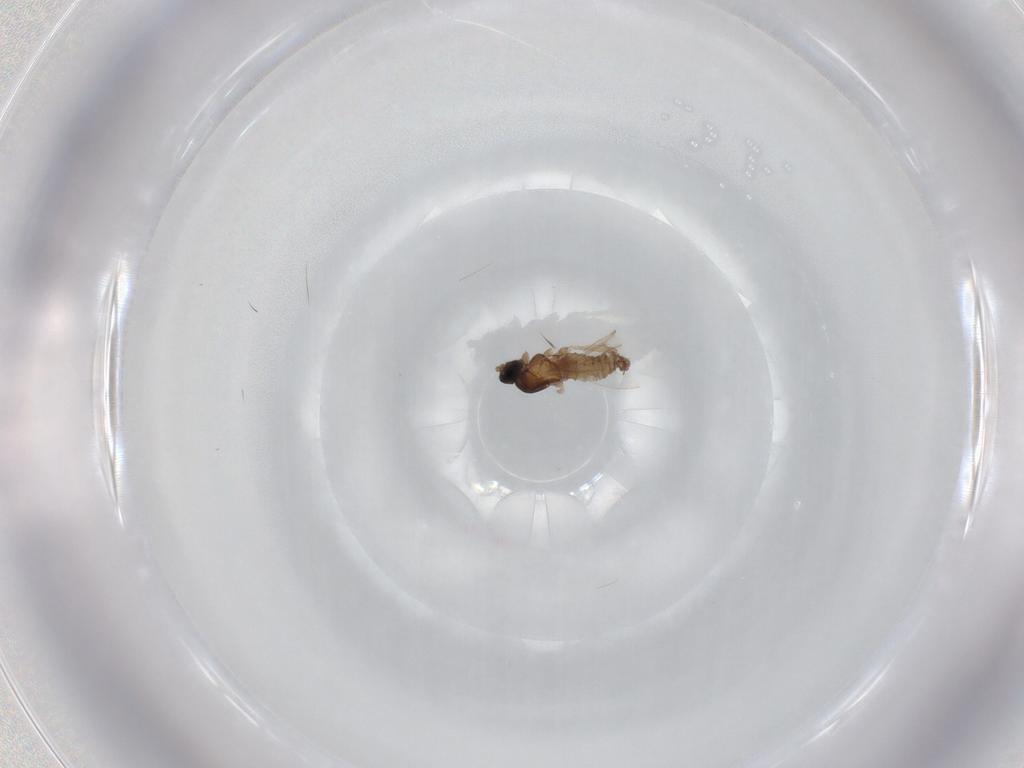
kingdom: Animalia
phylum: Arthropoda
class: Insecta
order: Diptera
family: Cecidomyiidae
